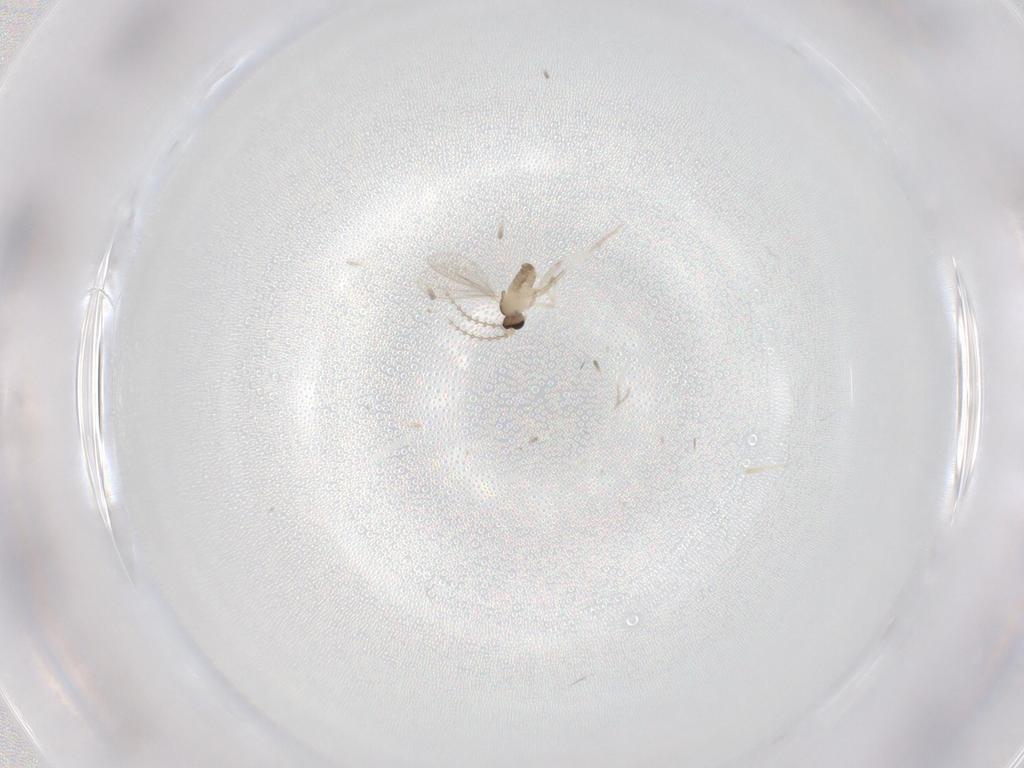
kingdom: Animalia
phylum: Arthropoda
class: Insecta
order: Diptera
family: Cecidomyiidae
